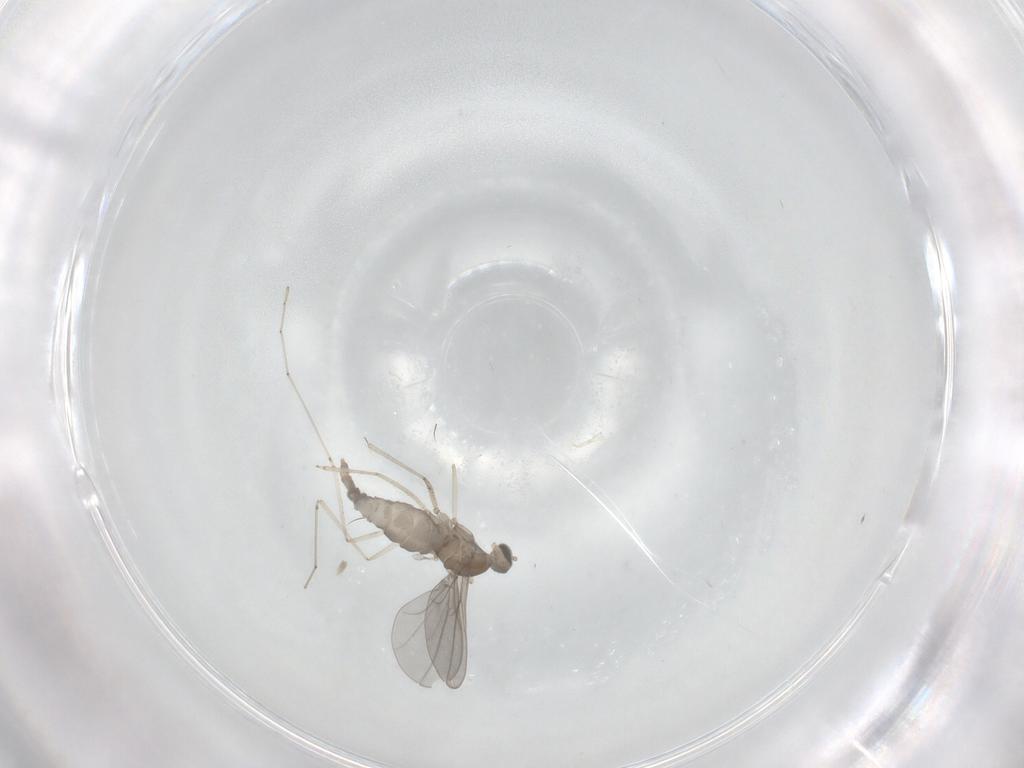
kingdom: Animalia
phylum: Arthropoda
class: Insecta
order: Diptera
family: Cecidomyiidae
